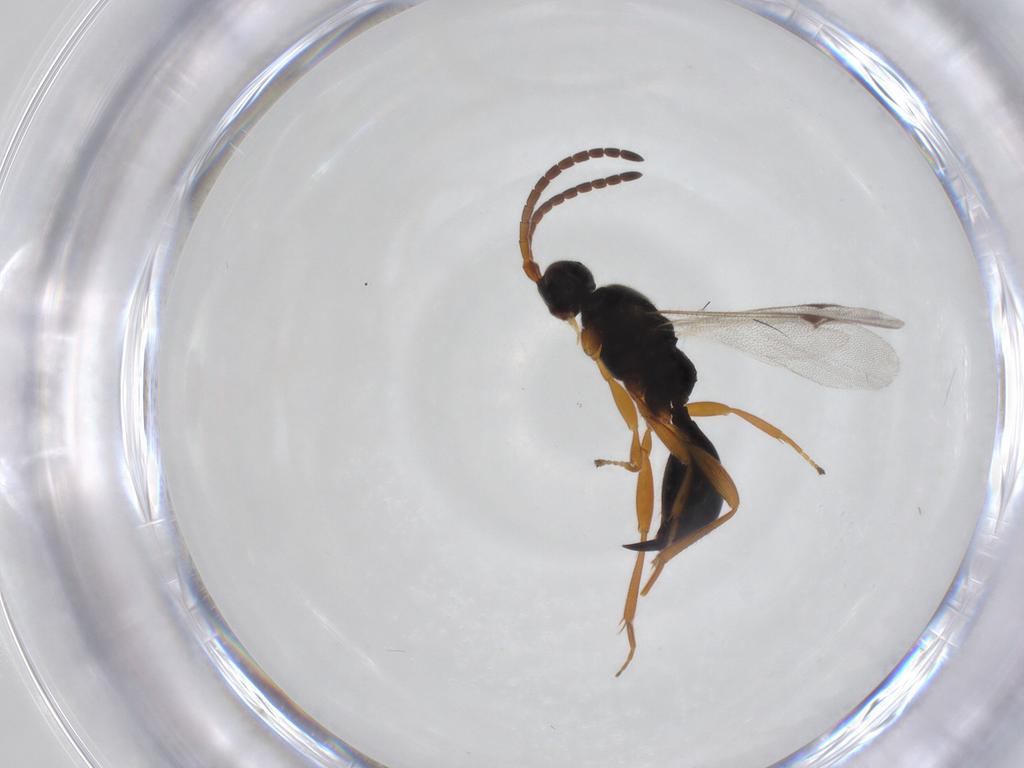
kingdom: Animalia
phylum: Arthropoda
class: Insecta
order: Hymenoptera
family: Proctotrupidae
